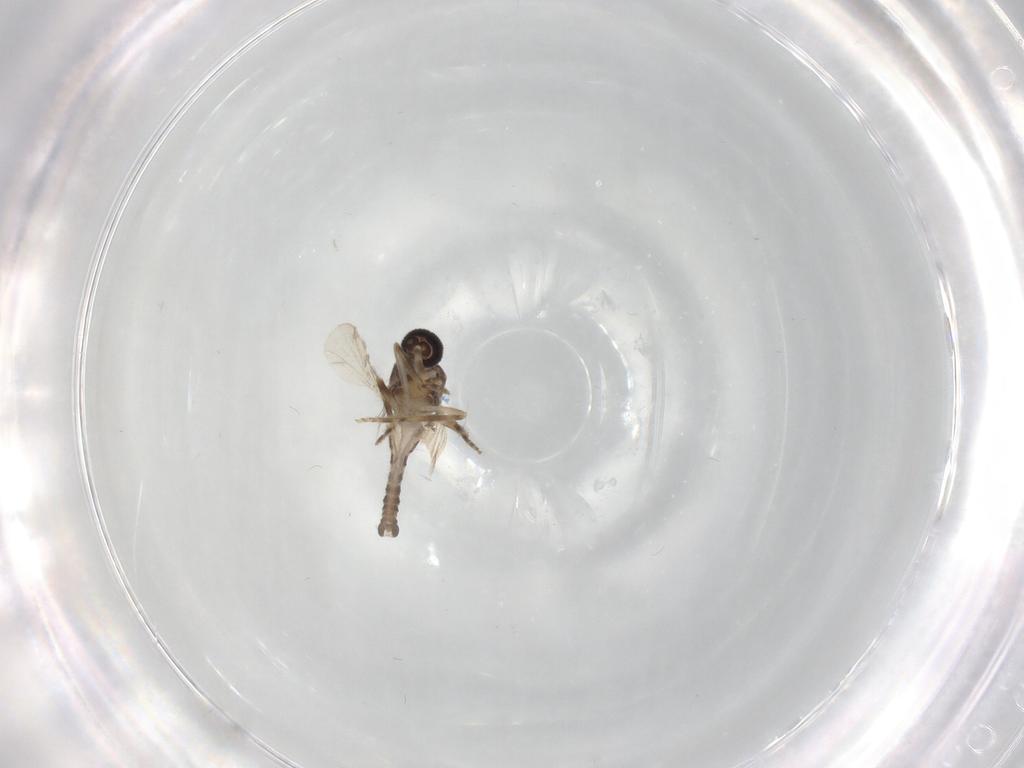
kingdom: Animalia
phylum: Arthropoda
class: Insecta
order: Diptera
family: Ceratopogonidae
